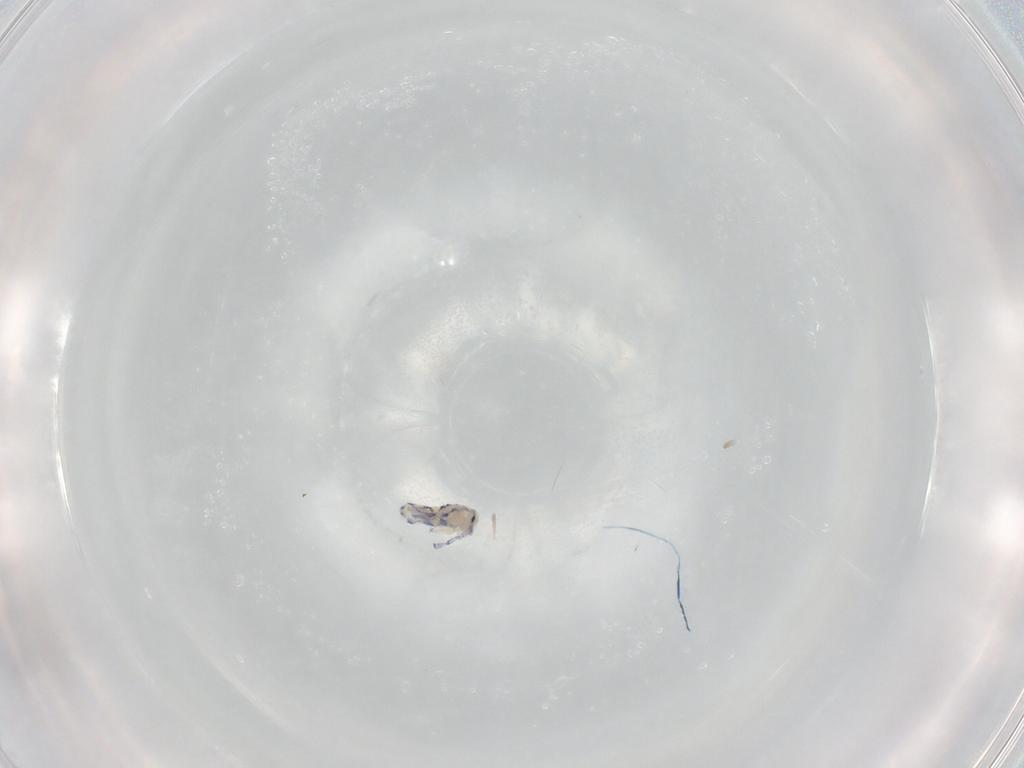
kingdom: Animalia
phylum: Arthropoda
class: Collembola
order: Entomobryomorpha
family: Entomobryidae
